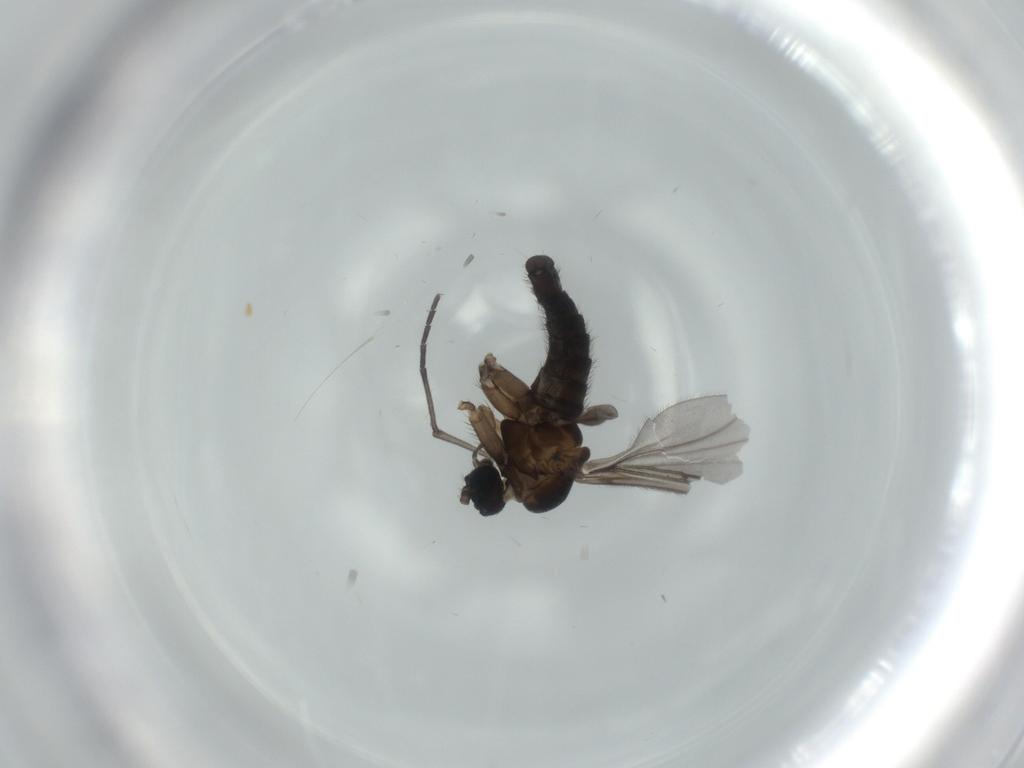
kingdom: Animalia
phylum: Arthropoda
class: Insecta
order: Diptera
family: Sciaridae
